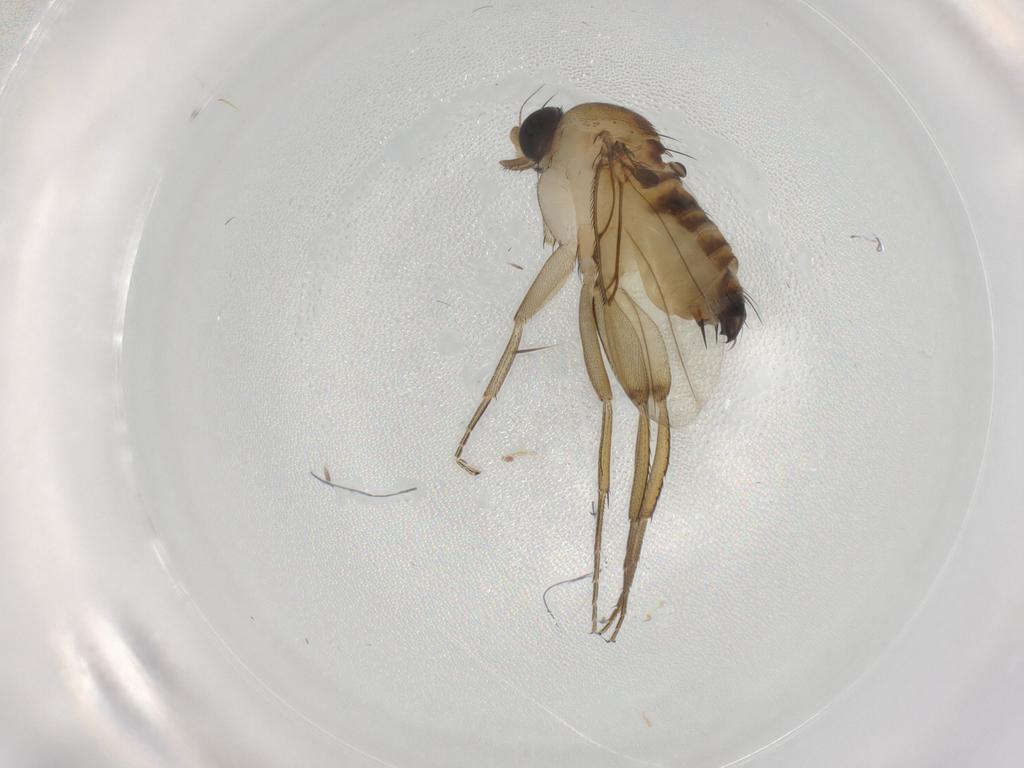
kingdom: Animalia
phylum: Arthropoda
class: Insecta
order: Diptera
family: Phoridae
